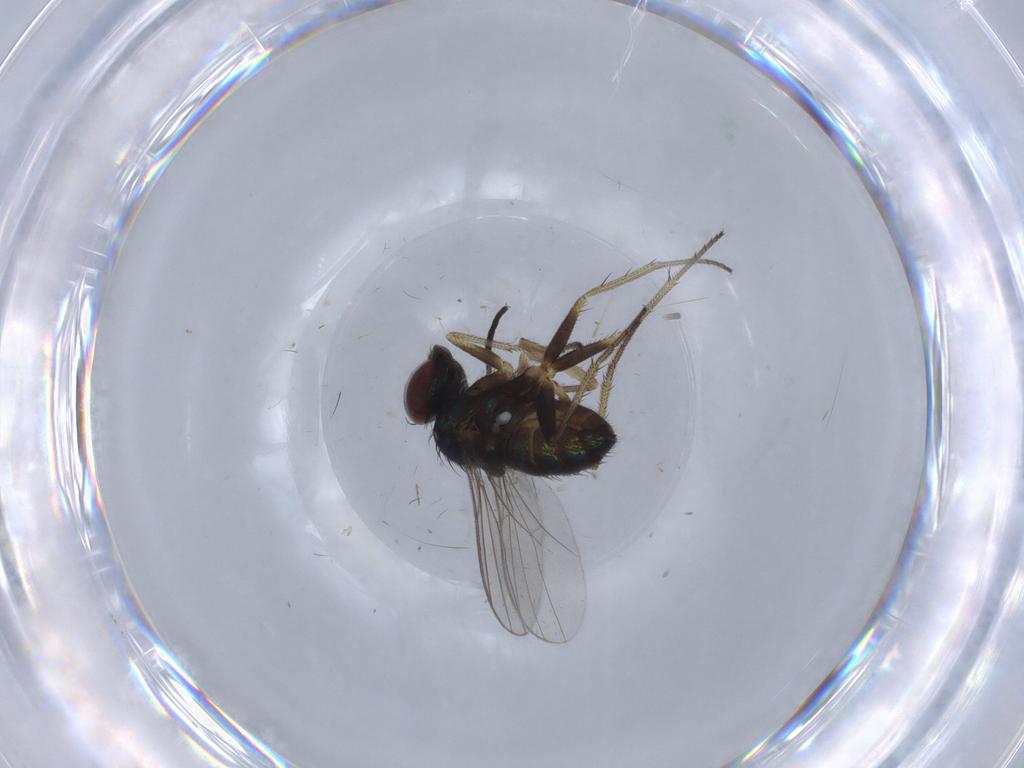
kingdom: Animalia
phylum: Arthropoda
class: Insecta
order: Diptera
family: Sciaridae
